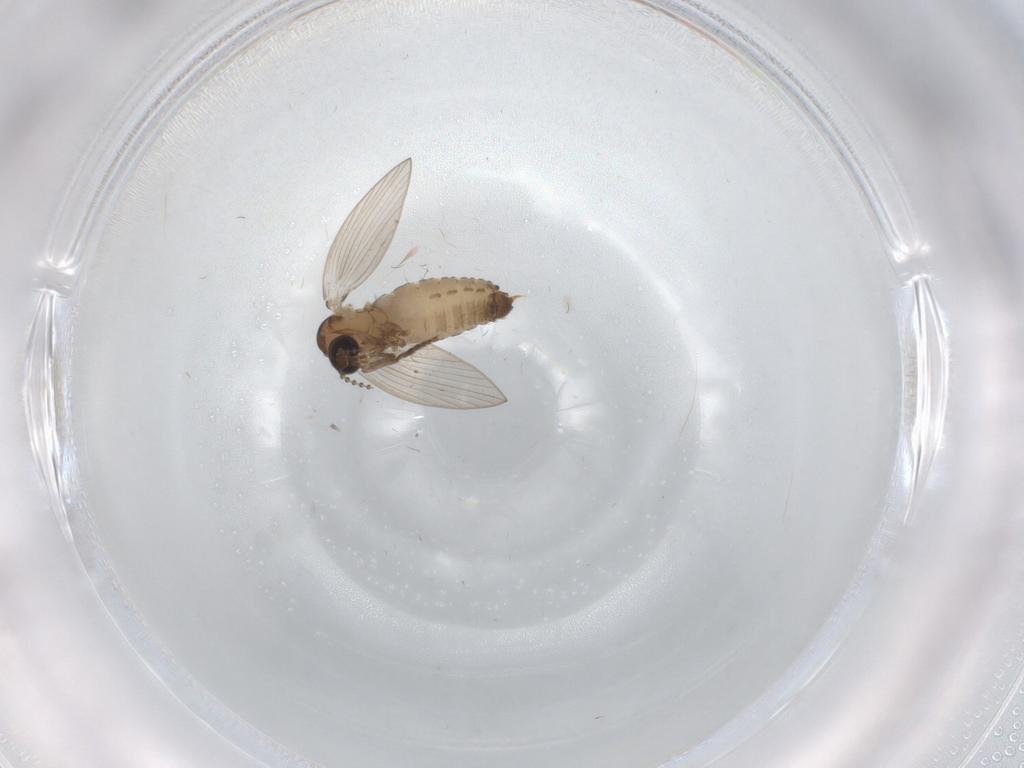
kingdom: Animalia
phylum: Arthropoda
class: Insecta
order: Diptera
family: Psychodidae
